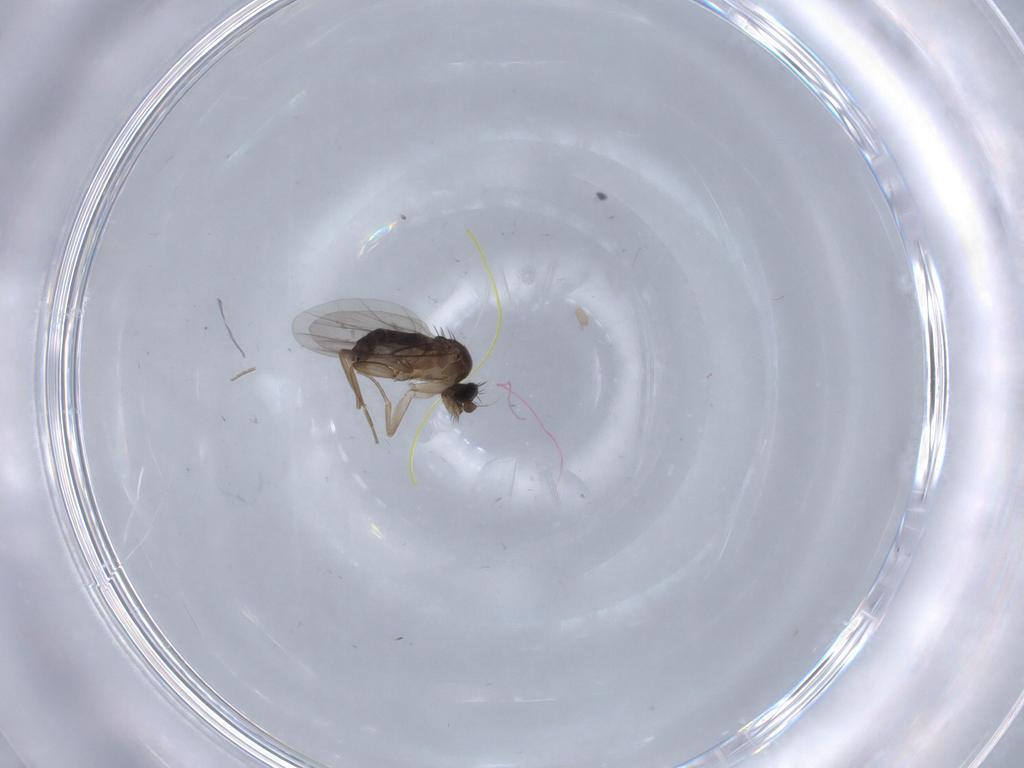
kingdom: Animalia
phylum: Arthropoda
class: Insecta
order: Diptera
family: Phoridae
